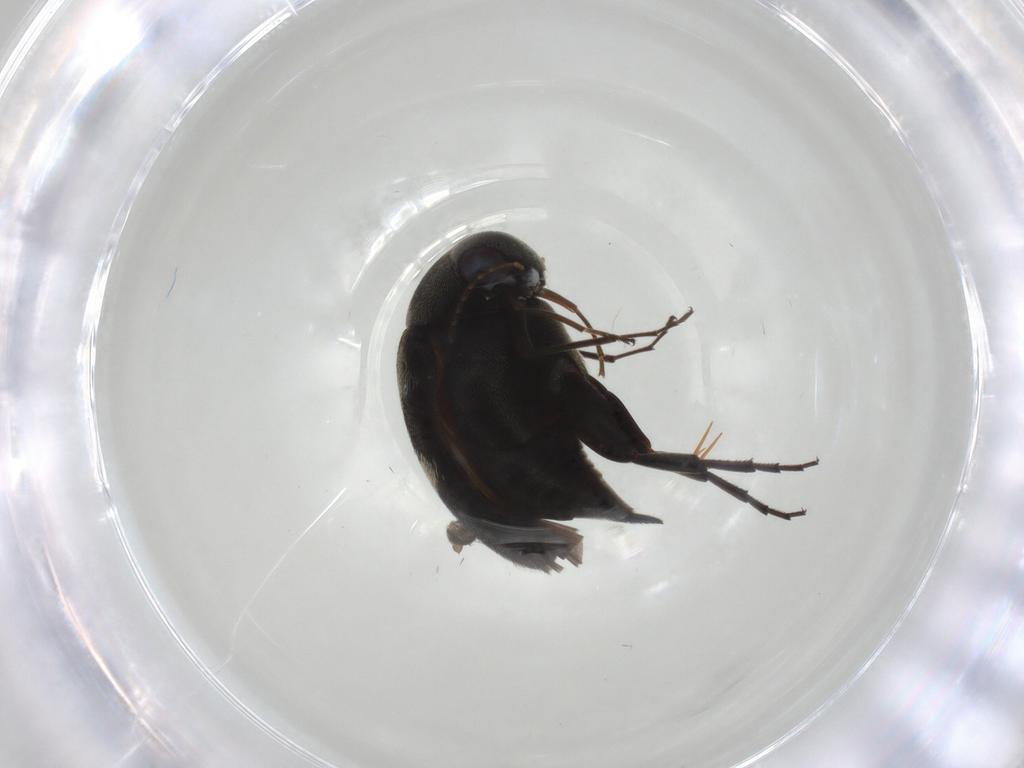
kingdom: Animalia
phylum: Arthropoda
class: Insecta
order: Coleoptera
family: Mordellidae
